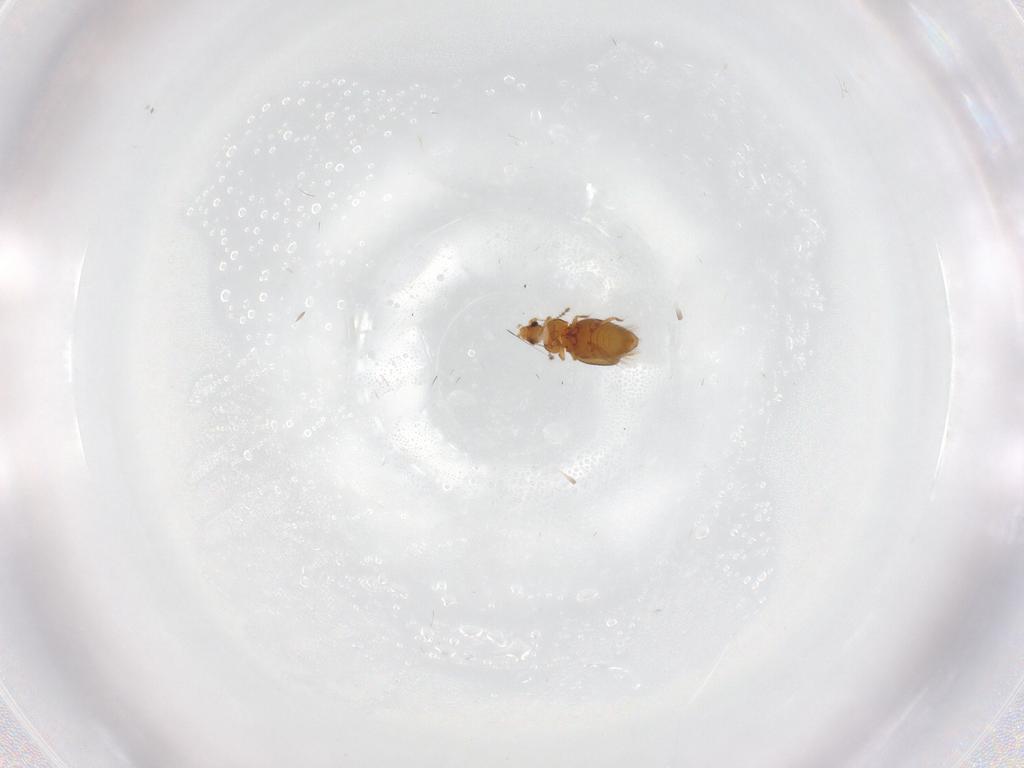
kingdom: Animalia
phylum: Arthropoda
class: Insecta
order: Coleoptera
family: Ptiliidae
